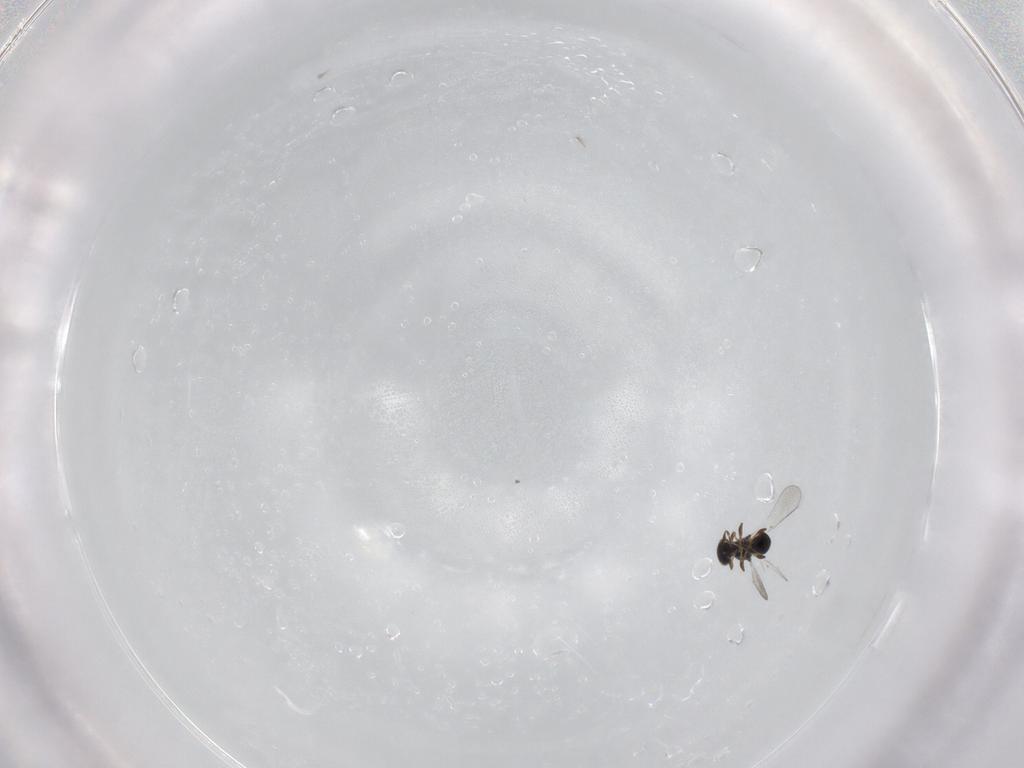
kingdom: Animalia
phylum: Arthropoda
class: Insecta
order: Hymenoptera
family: Platygastridae
